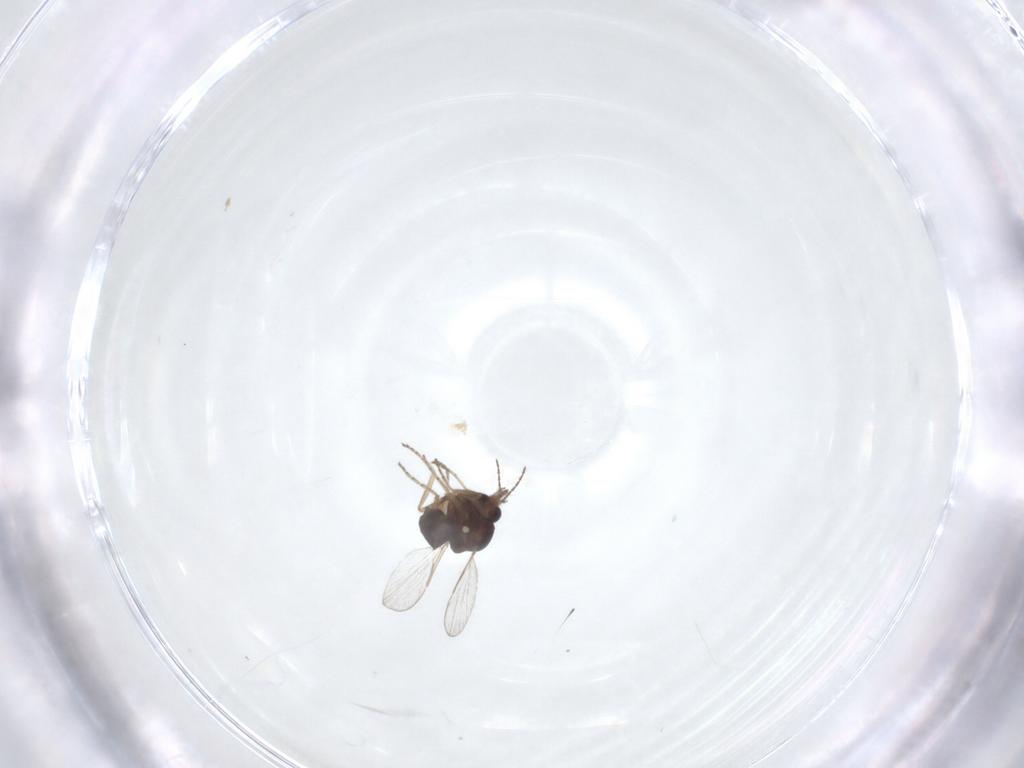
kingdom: Animalia
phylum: Arthropoda
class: Insecta
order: Diptera
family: Ceratopogonidae
